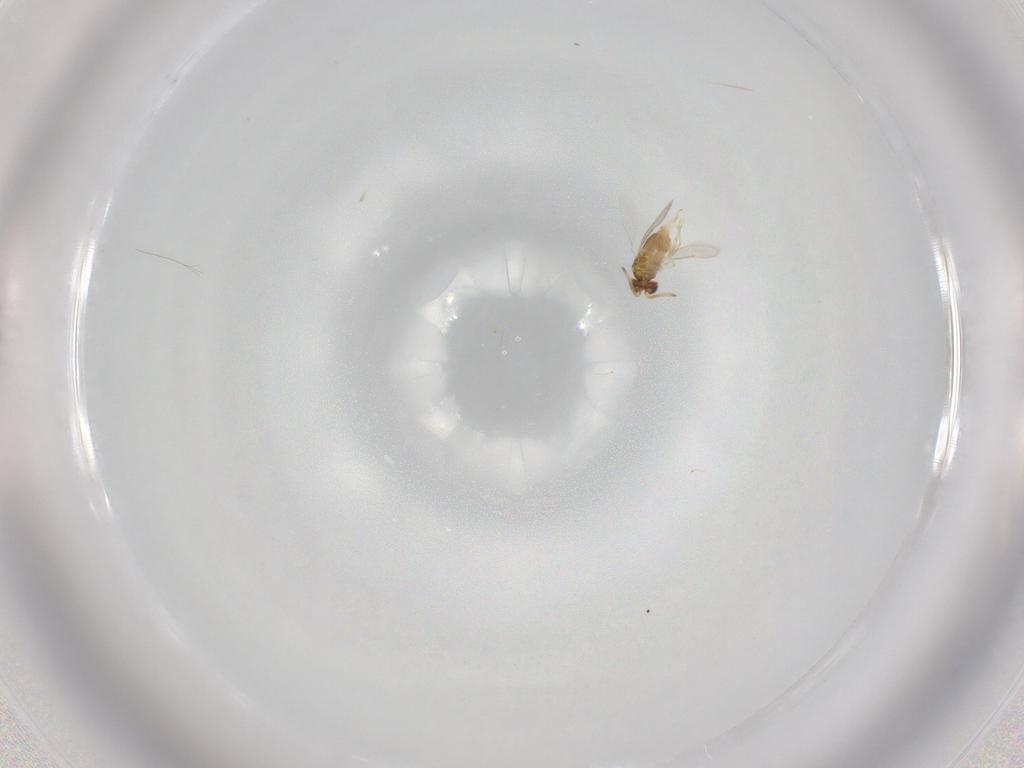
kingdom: Animalia
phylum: Arthropoda
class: Insecta
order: Hymenoptera
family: Aphelinidae
